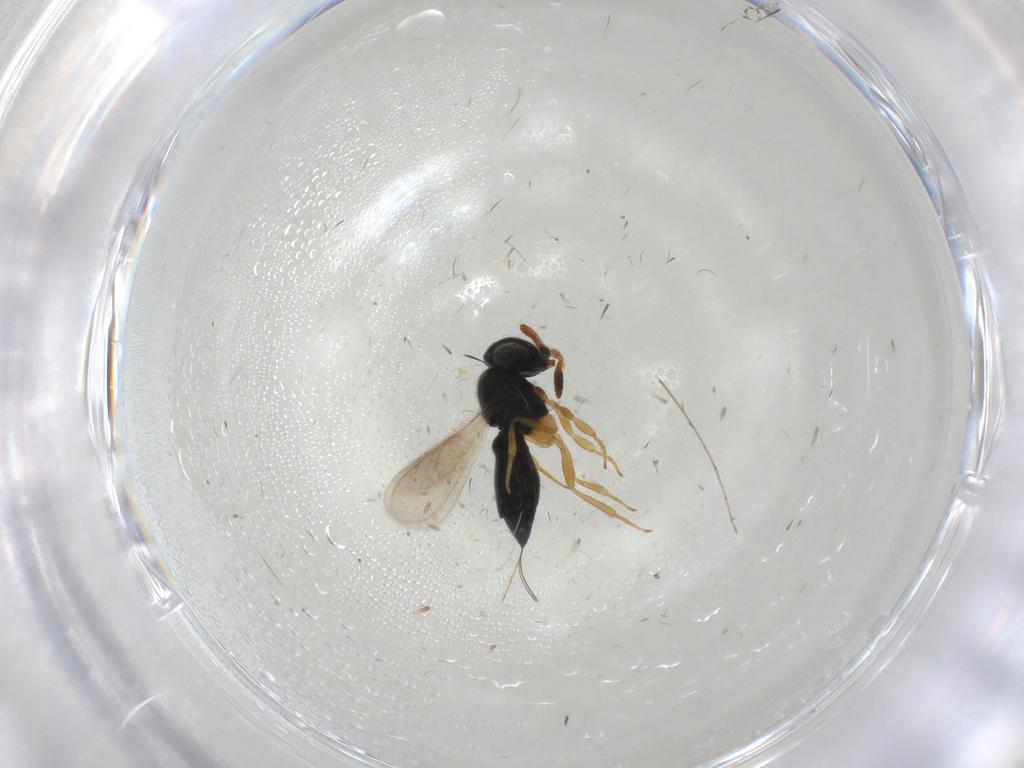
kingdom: Animalia
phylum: Arthropoda
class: Insecta
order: Hymenoptera
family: Scelionidae
